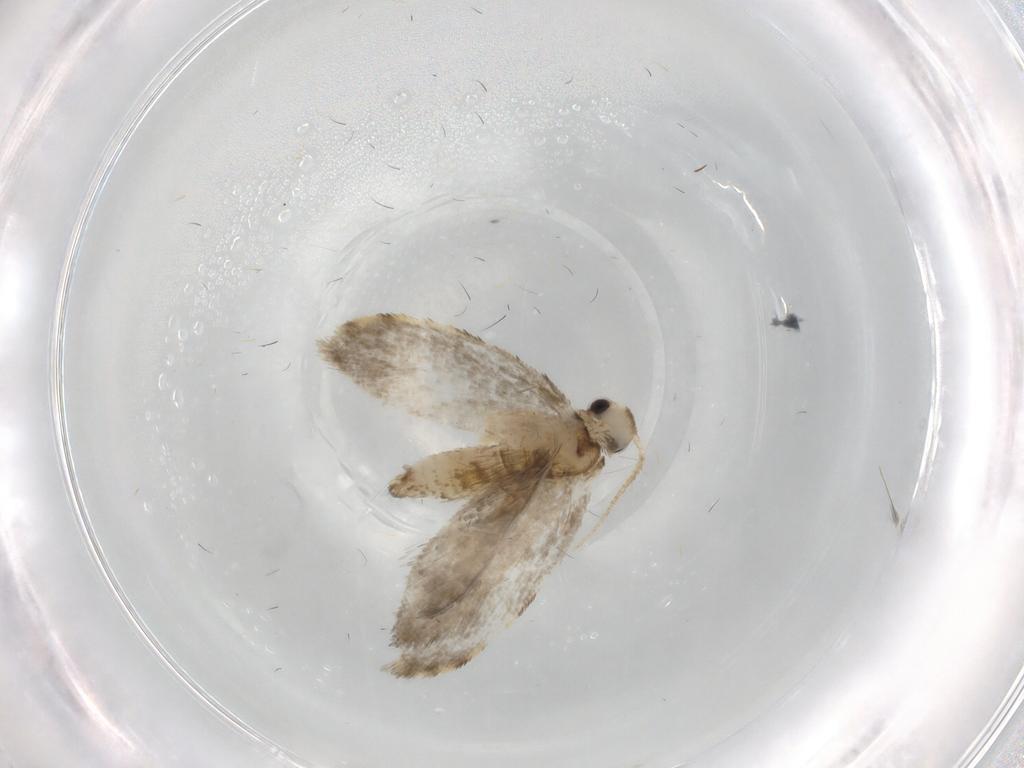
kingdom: Animalia
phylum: Arthropoda
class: Insecta
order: Lepidoptera
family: Psychidae
